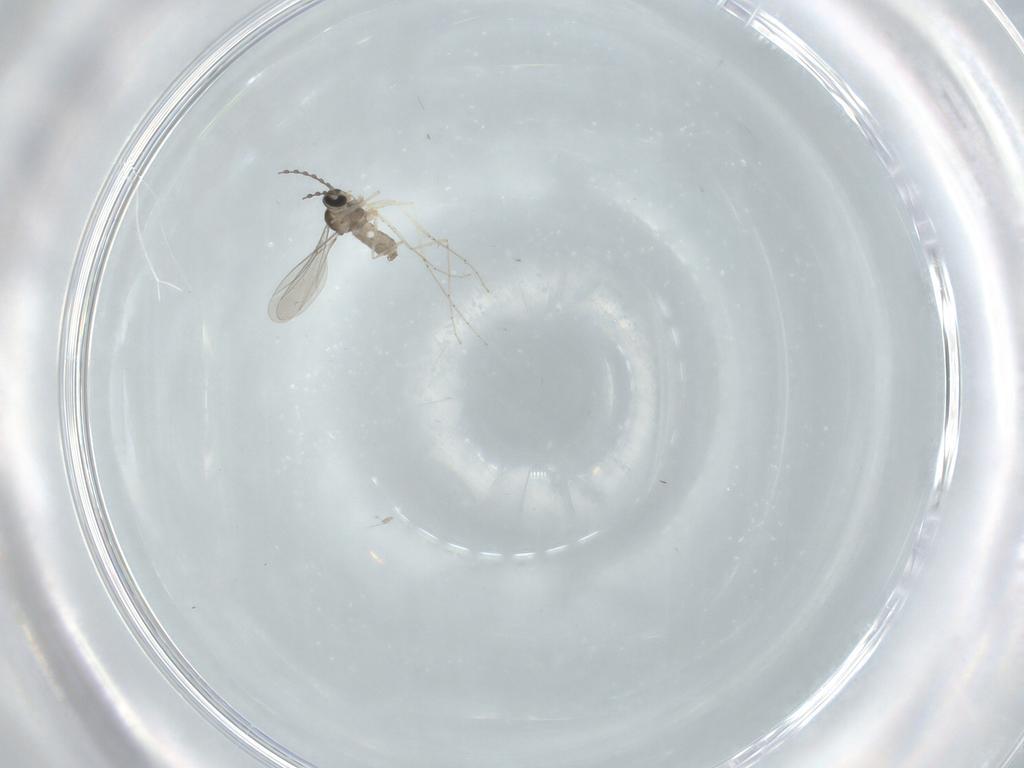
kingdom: Animalia
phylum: Arthropoda
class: Insecta
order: Diptera
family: Cecidomyiidae
